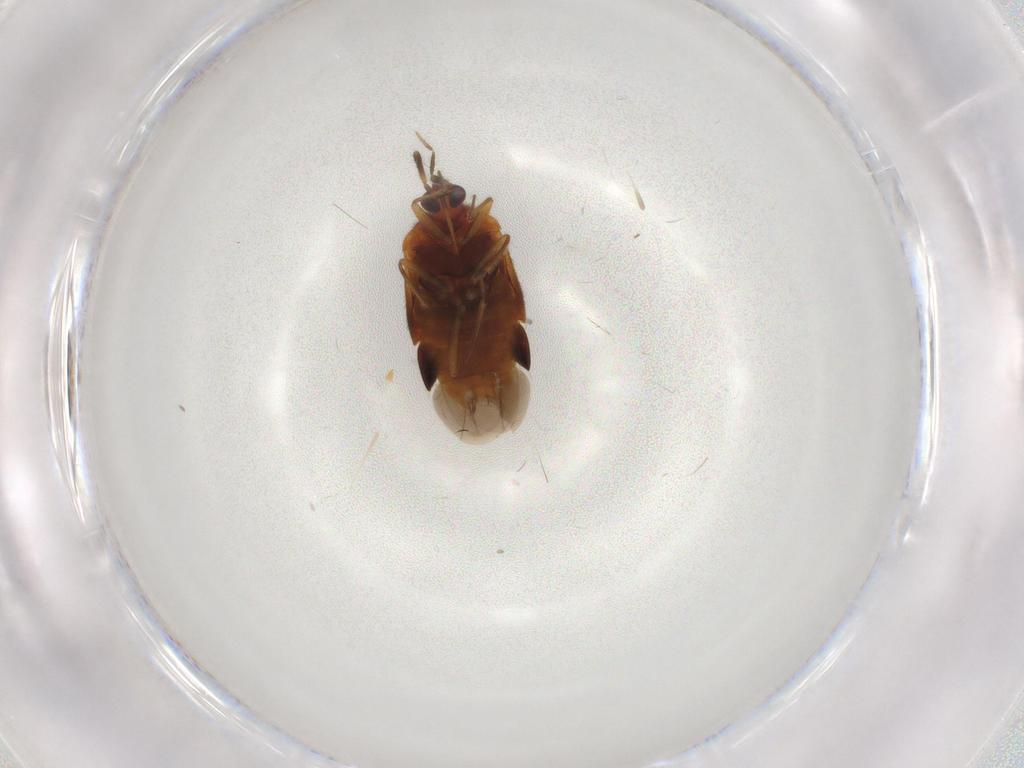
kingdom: Animalia
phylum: Arthropoda
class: Insecta
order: Hemiptera
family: Anthocoridae
